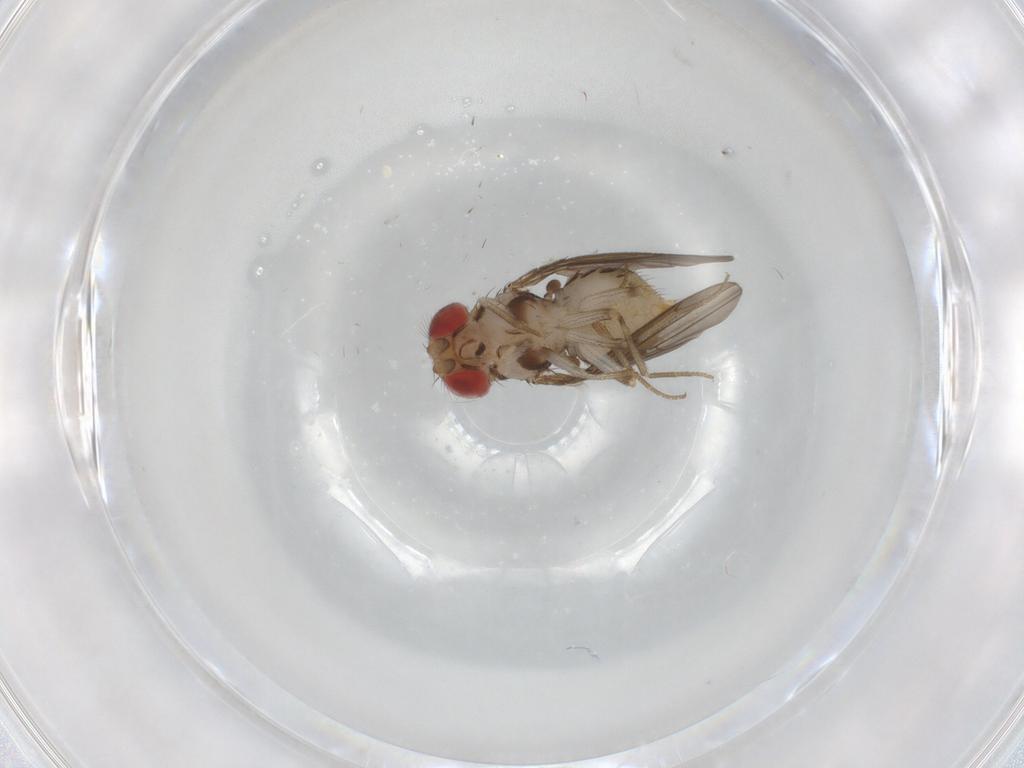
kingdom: Animalia
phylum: Arthropoda
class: Insecta
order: Diptera
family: Drosophilidae
